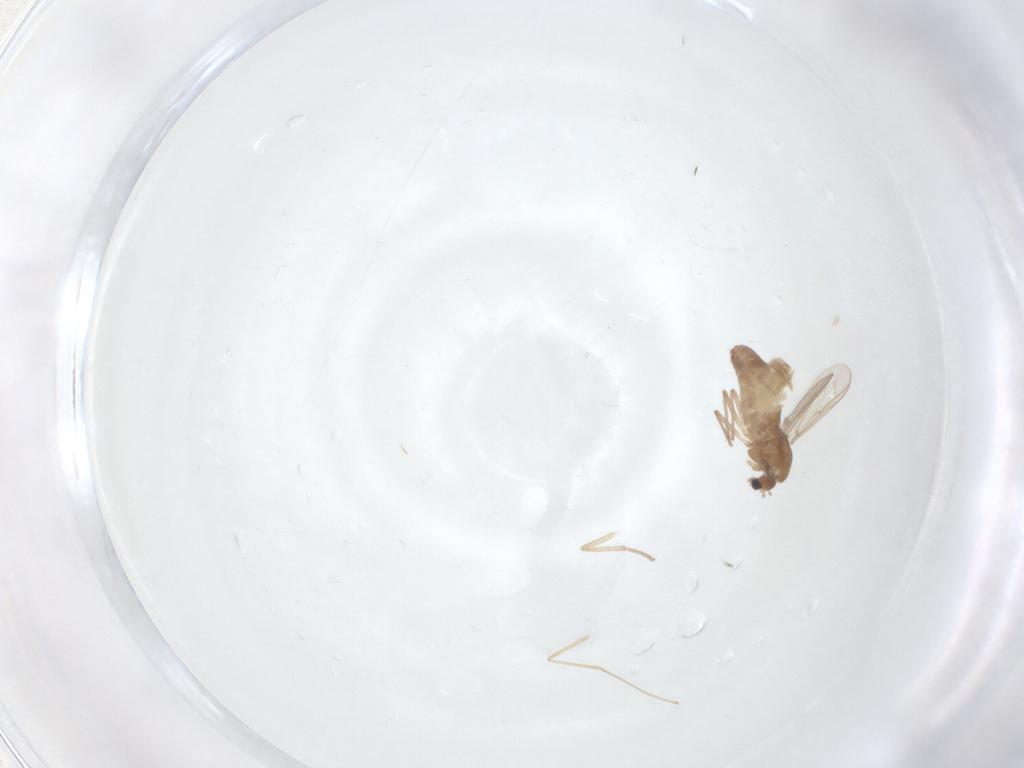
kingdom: Animalia
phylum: Arthropoda
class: Insecta
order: Diptera
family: Chironomidae
